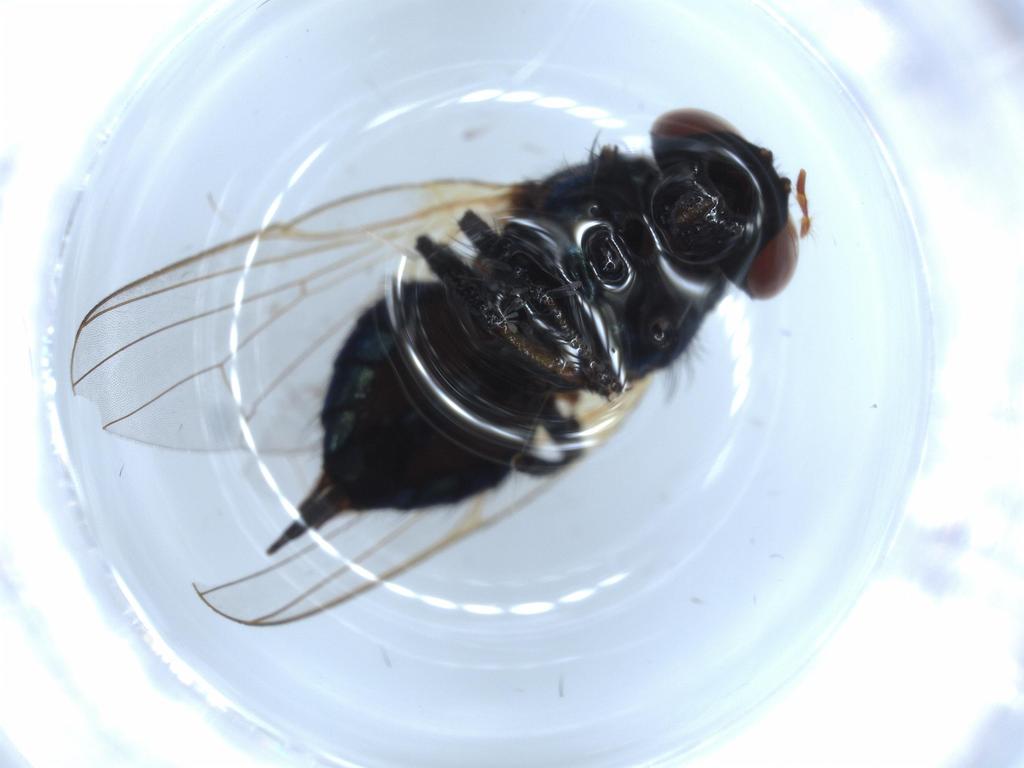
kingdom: Animalia
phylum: Arthropoda
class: Insecta
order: Diptera
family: Lonchaeidae
